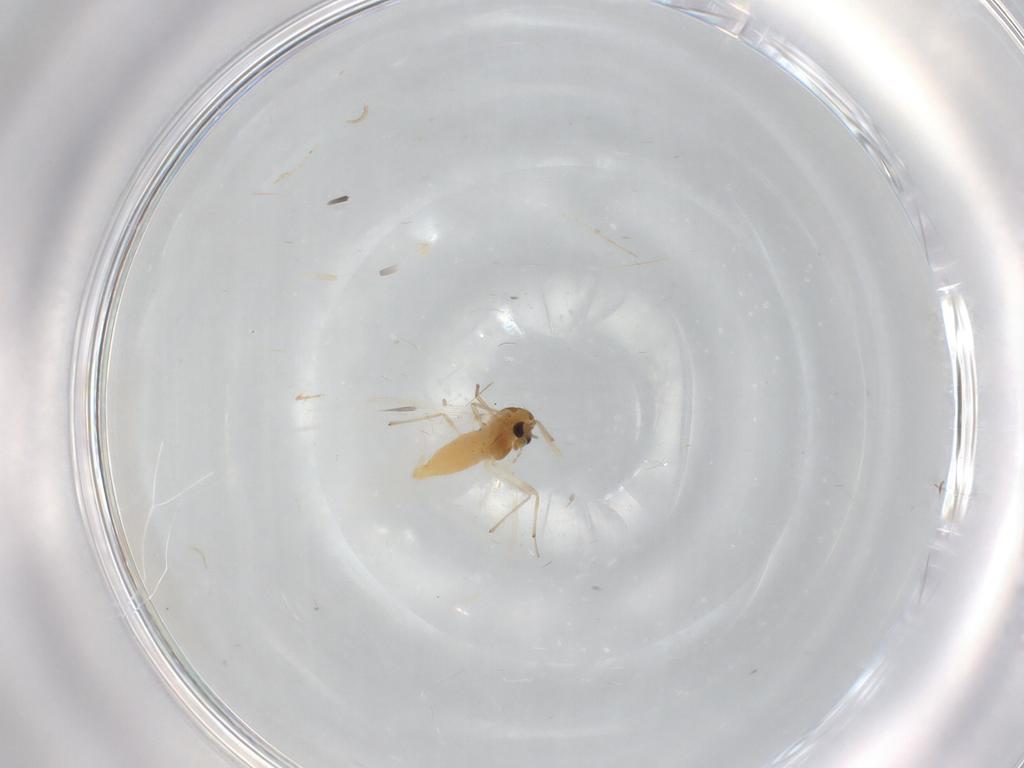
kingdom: Animalia
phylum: Arthropoda
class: Insecta
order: Diptera
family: Chironomidae
